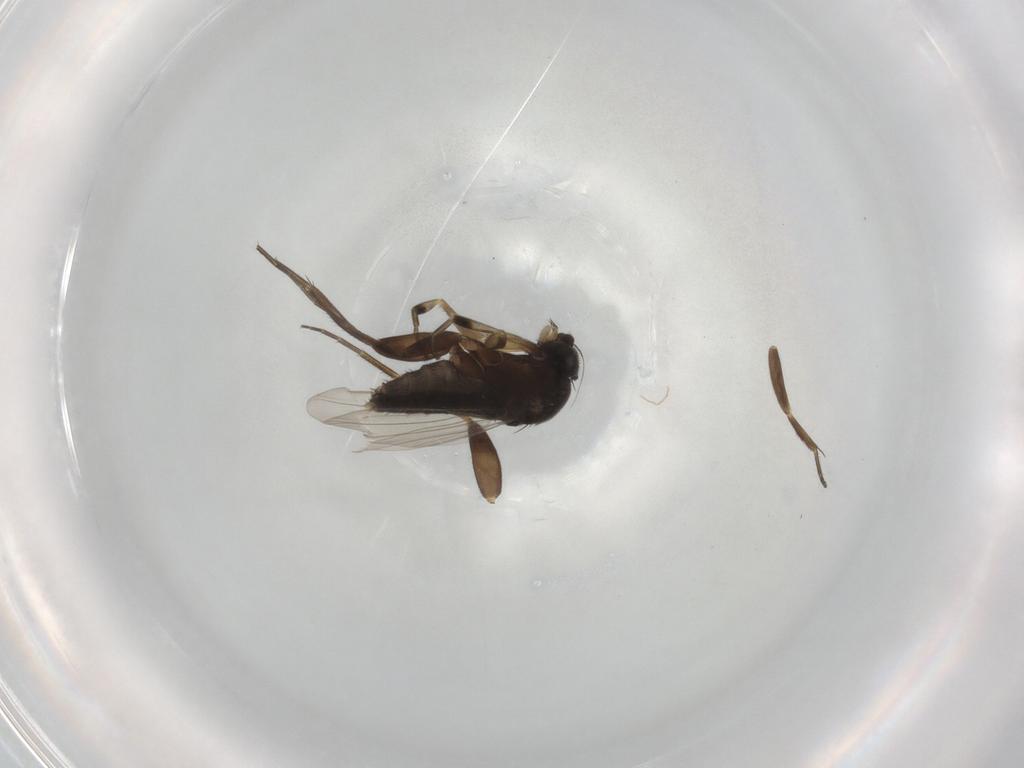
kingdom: Animalia
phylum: Arthropoda
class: Insecta
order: Diptera
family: Phoridae
